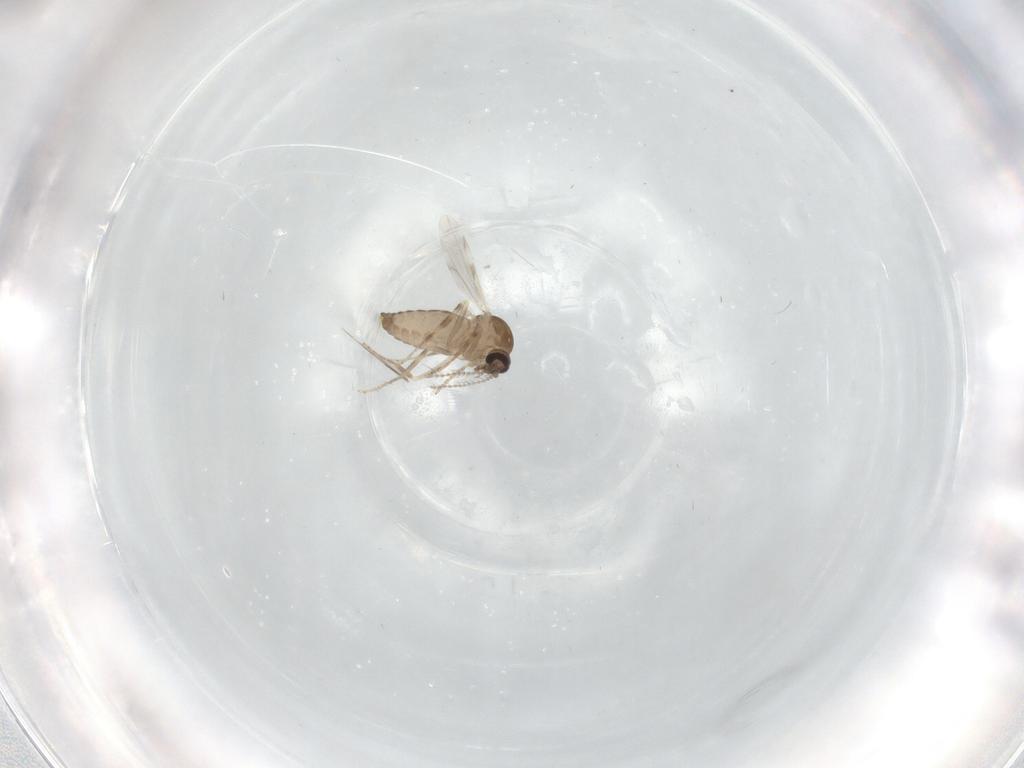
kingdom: Animalia
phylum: Arthropoda
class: Insecta
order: Diptera
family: Ceratopogonidae
